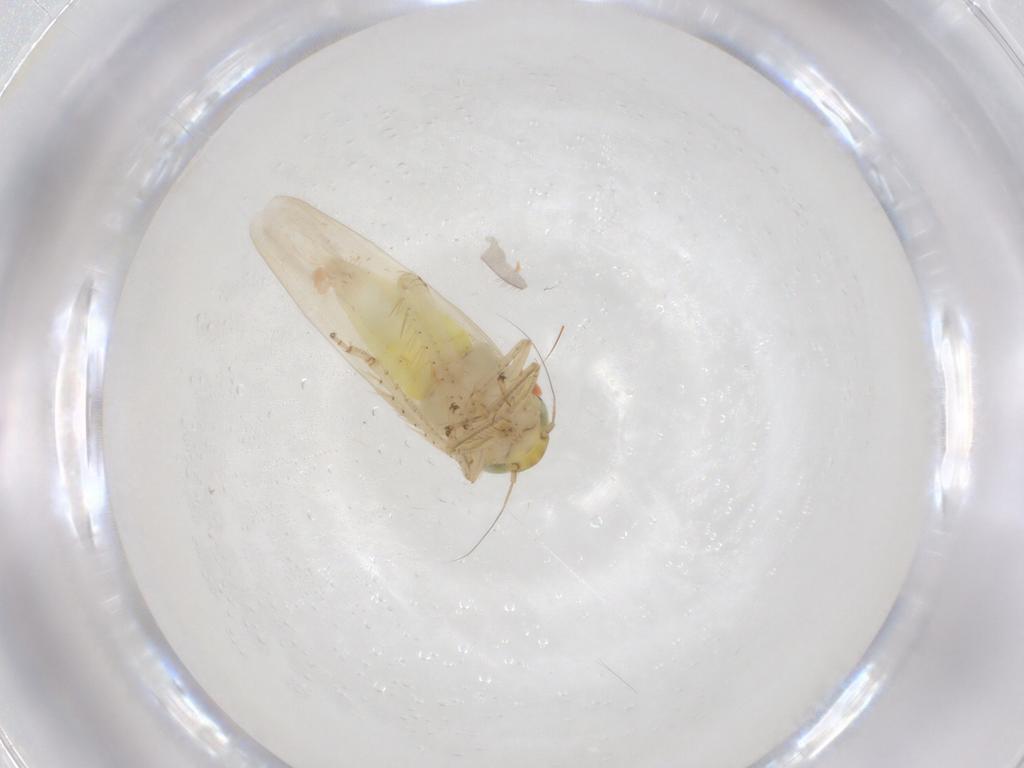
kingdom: Animalia
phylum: Arthropoda
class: Insecta
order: Hemiptera
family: Cicadellidae
